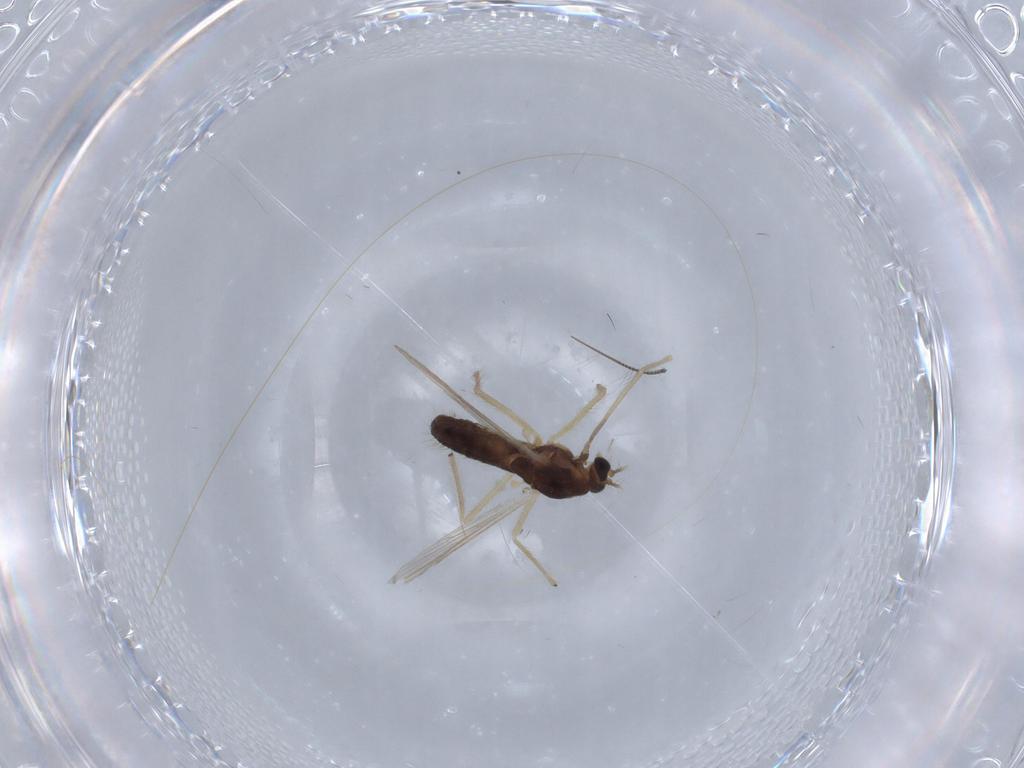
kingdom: Animalia
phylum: Arthropoda
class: Insecta
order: Diptera
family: Chironomidae
